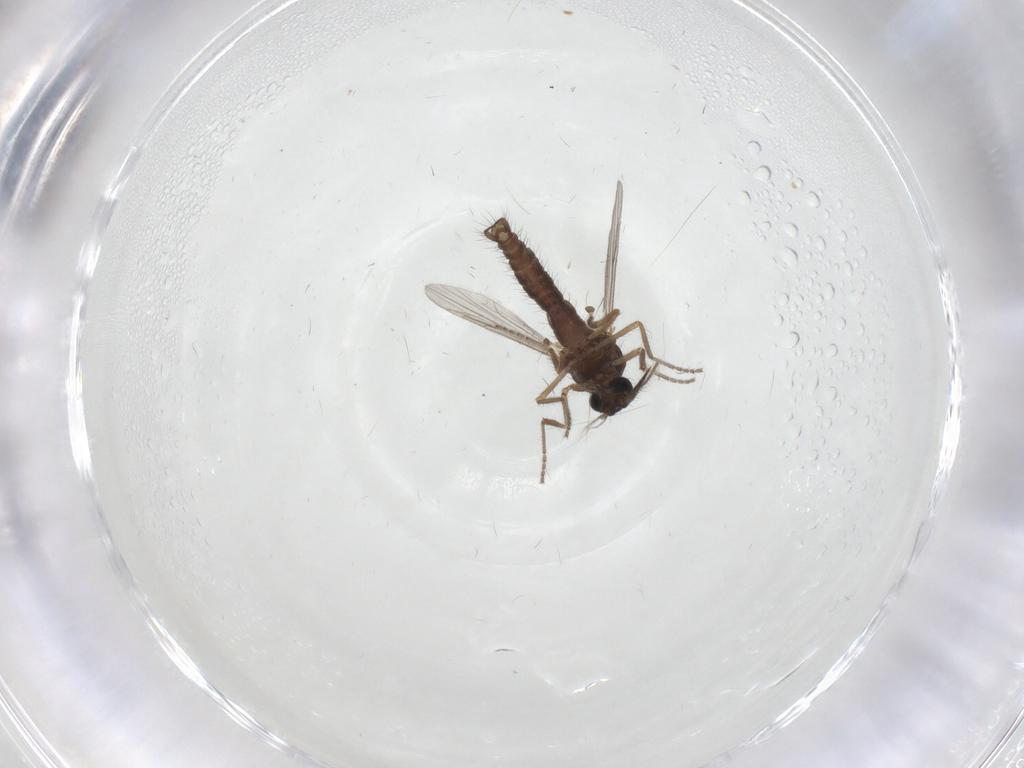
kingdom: Animalia
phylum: Arthropoda
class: Insecta
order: Diptera
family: Ceratopogonidae
